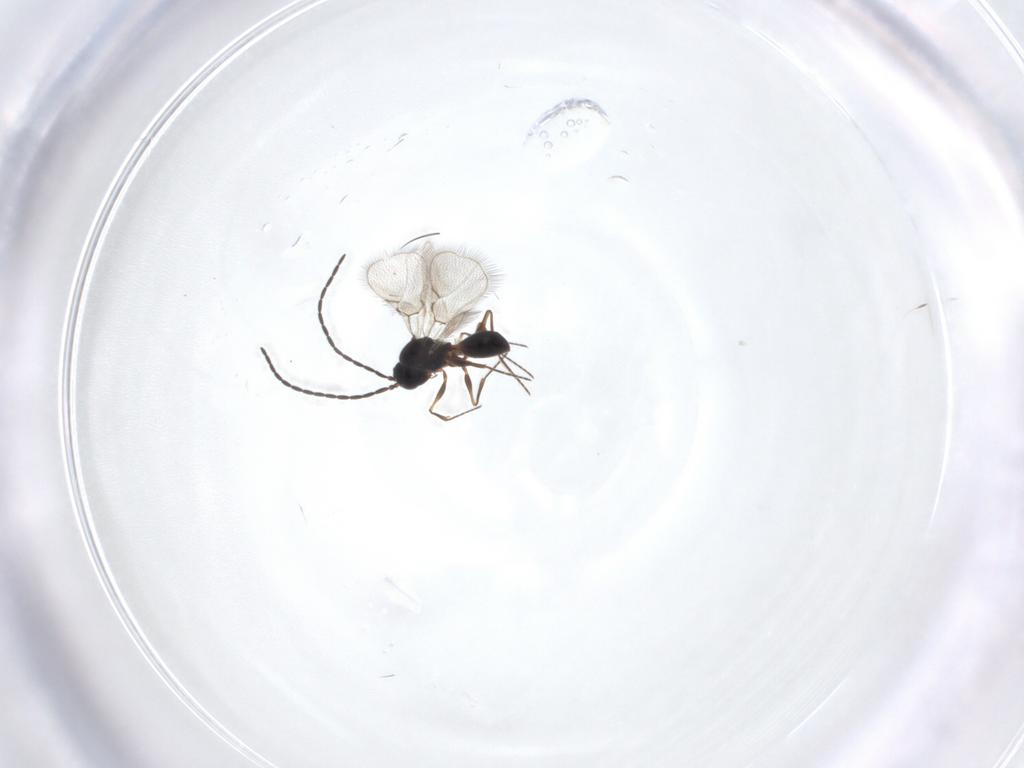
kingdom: Animalia
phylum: Arthropoda
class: Insecta
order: Hymenoptera
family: Figitidae
